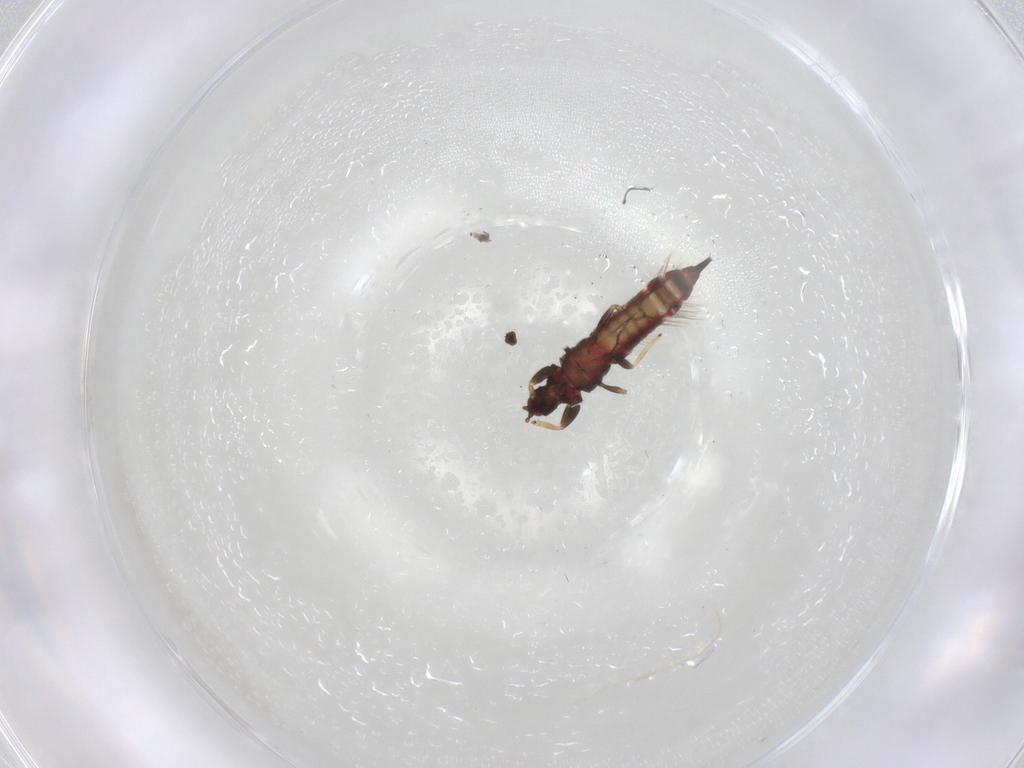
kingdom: Animalia
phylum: Arthropoda
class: Insecta
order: Thysanoptera
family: Phlaeothripidae
